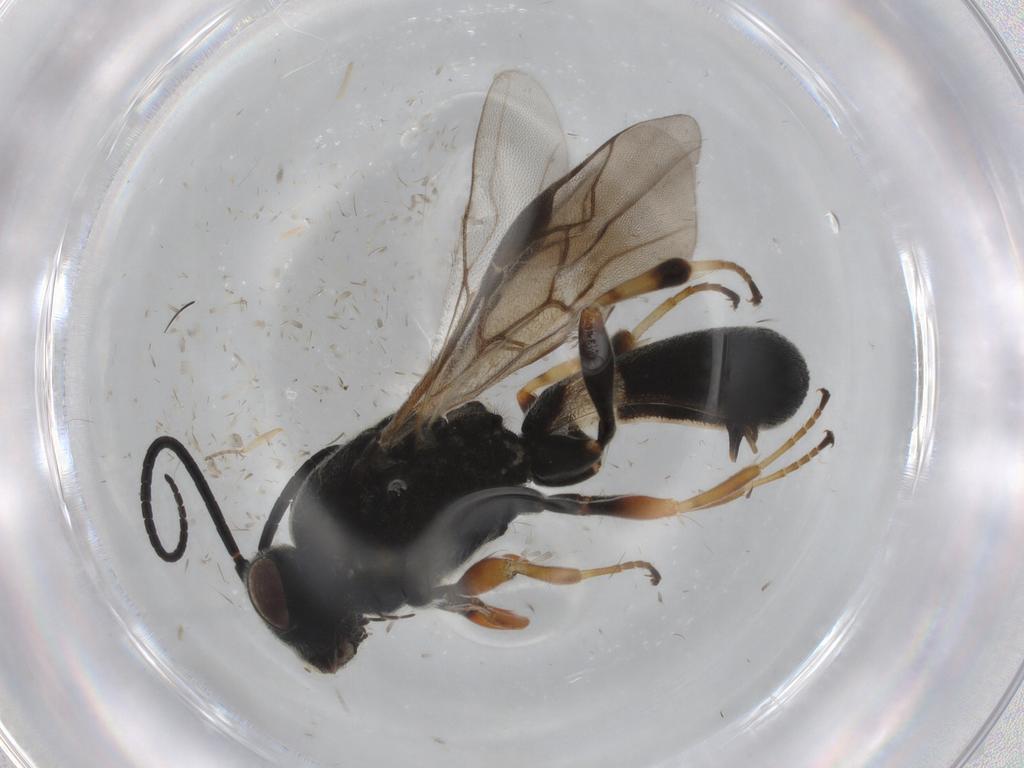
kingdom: Animalia
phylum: Arthropoda
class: Insecta
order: Hymenoptera
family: Braconidae
